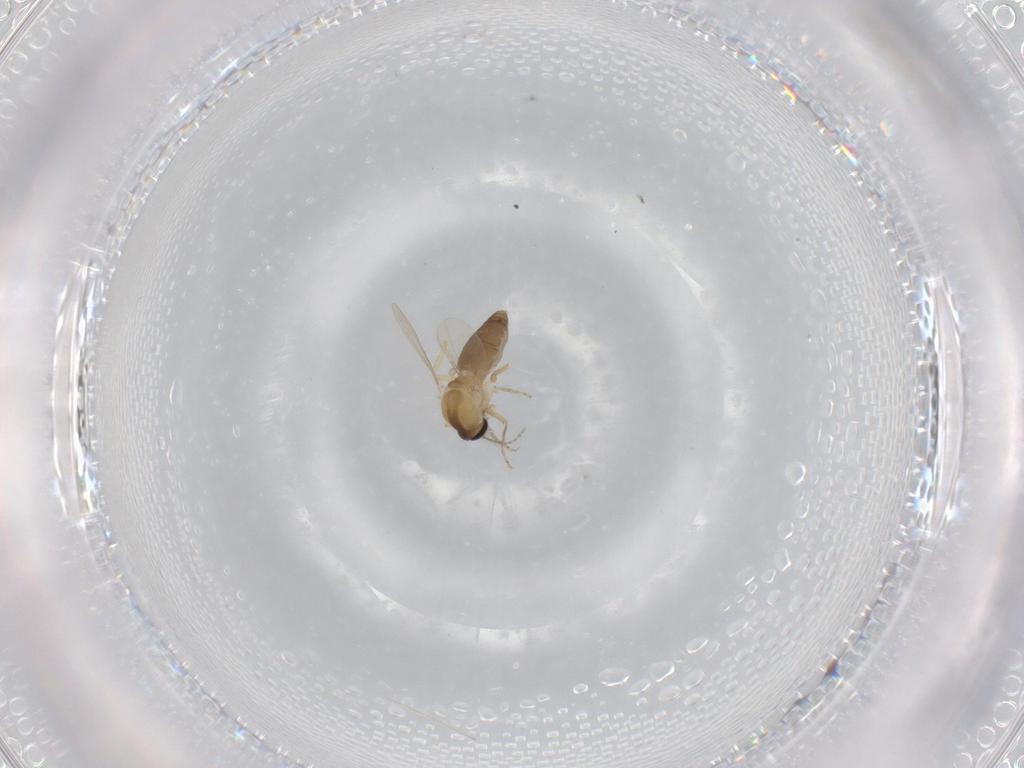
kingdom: Animalia
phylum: Arthropoda
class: Insecta
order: Diptera
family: Ceratopogonidae
